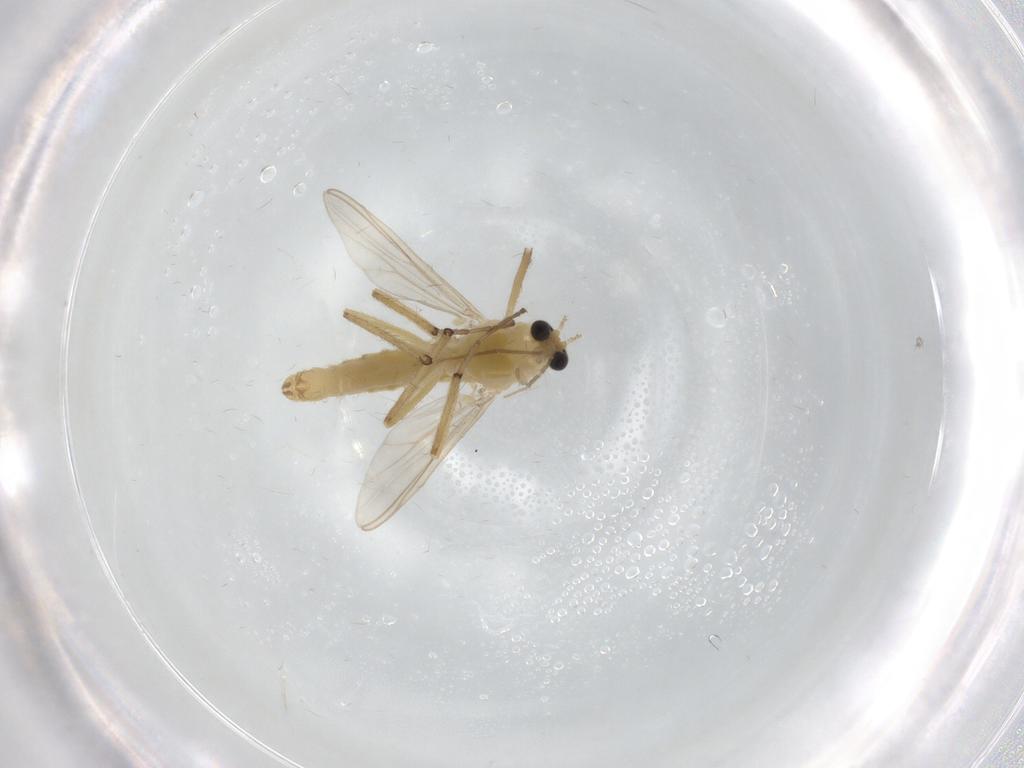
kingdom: Animalia
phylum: Arthropoda
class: Insecta
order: Diptera
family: Chironomidae
